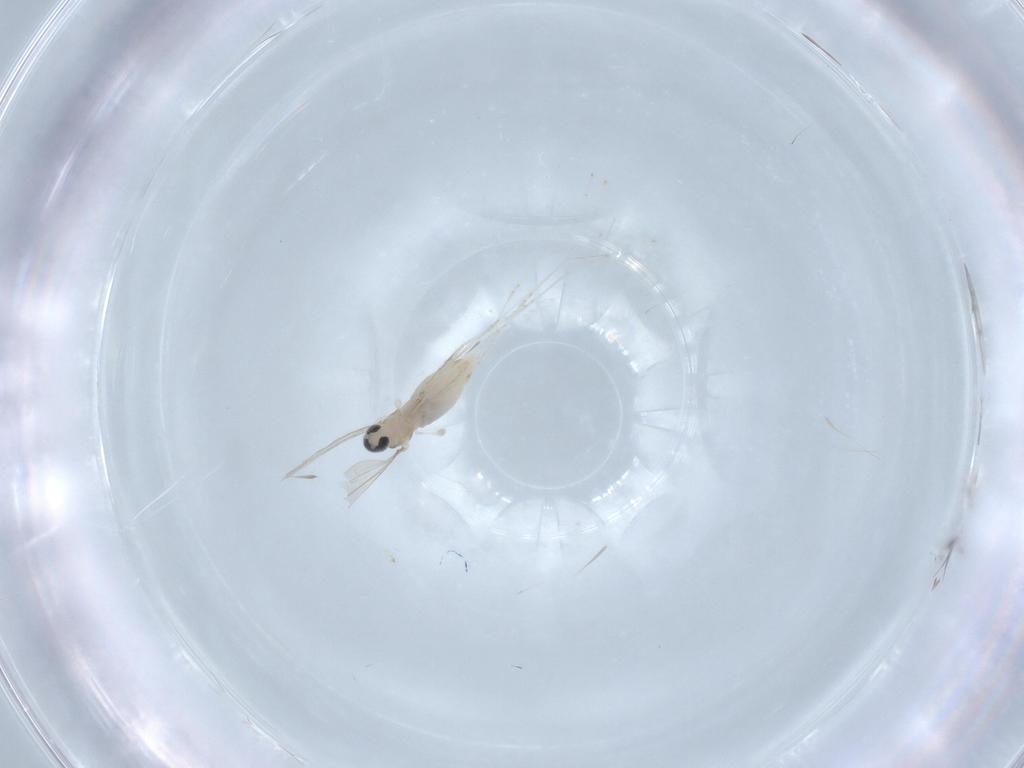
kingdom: Animalia
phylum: Arthropoda
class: Insecta
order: Diptera
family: Cecidomyiidae
